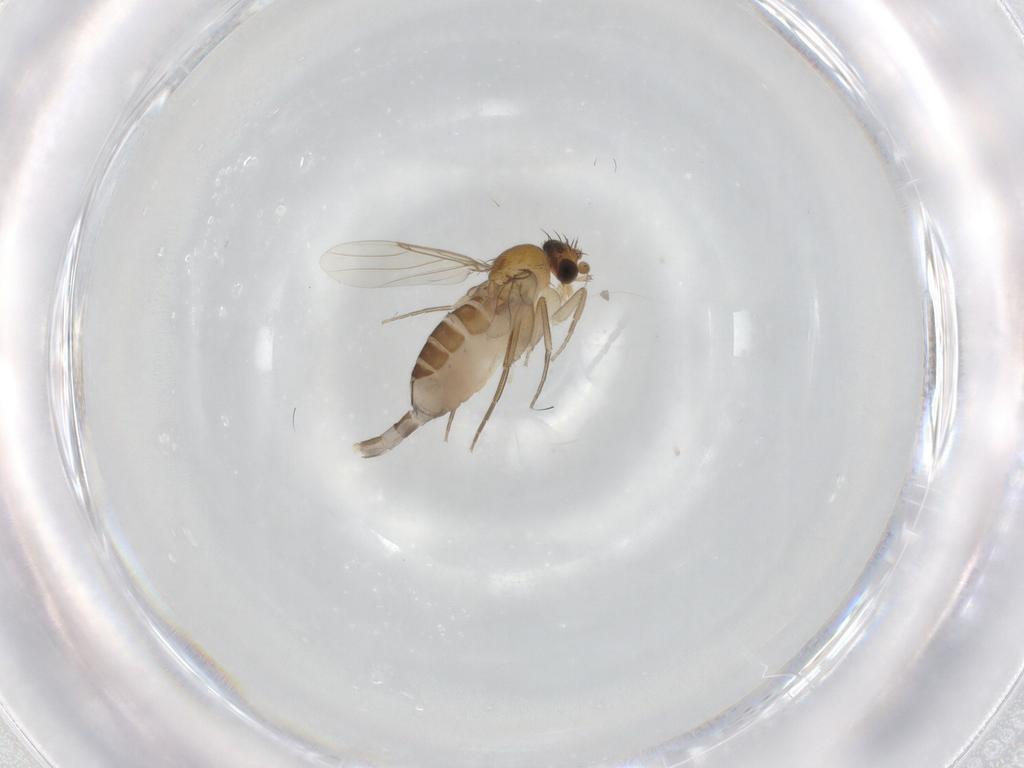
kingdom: Animalia
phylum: Arthropoda
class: Insecta
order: Diptera
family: Phoridae
